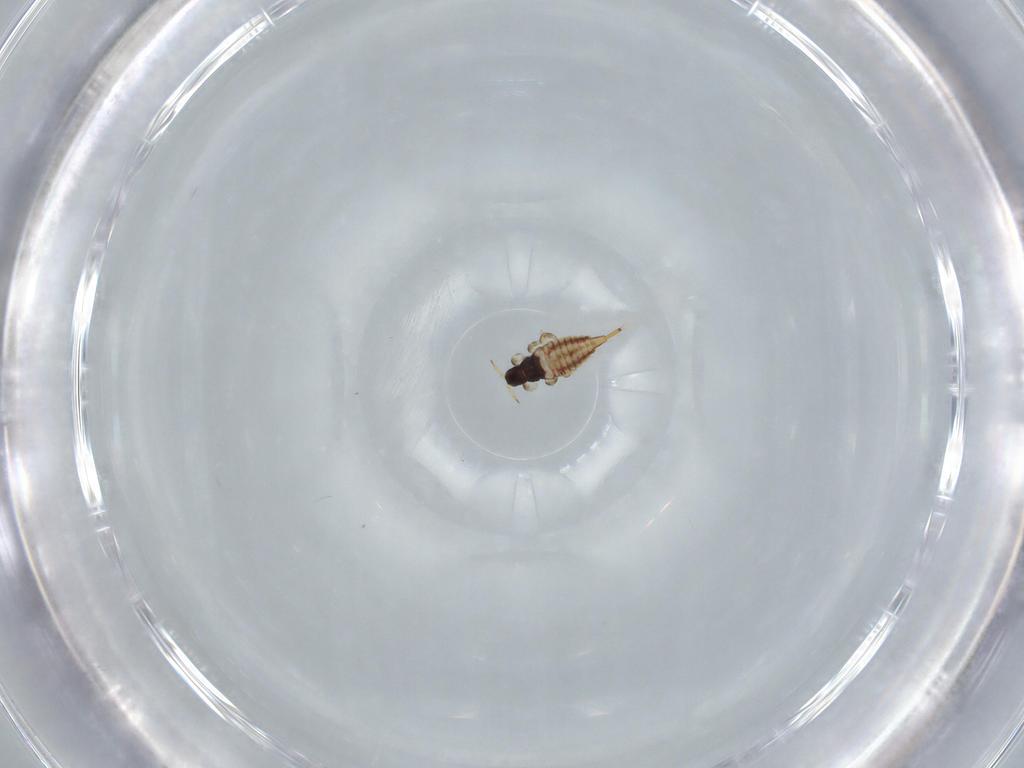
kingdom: Animalia
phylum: Arthropoda
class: Insecta
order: Thysanoptera
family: Phlaeothripidae
